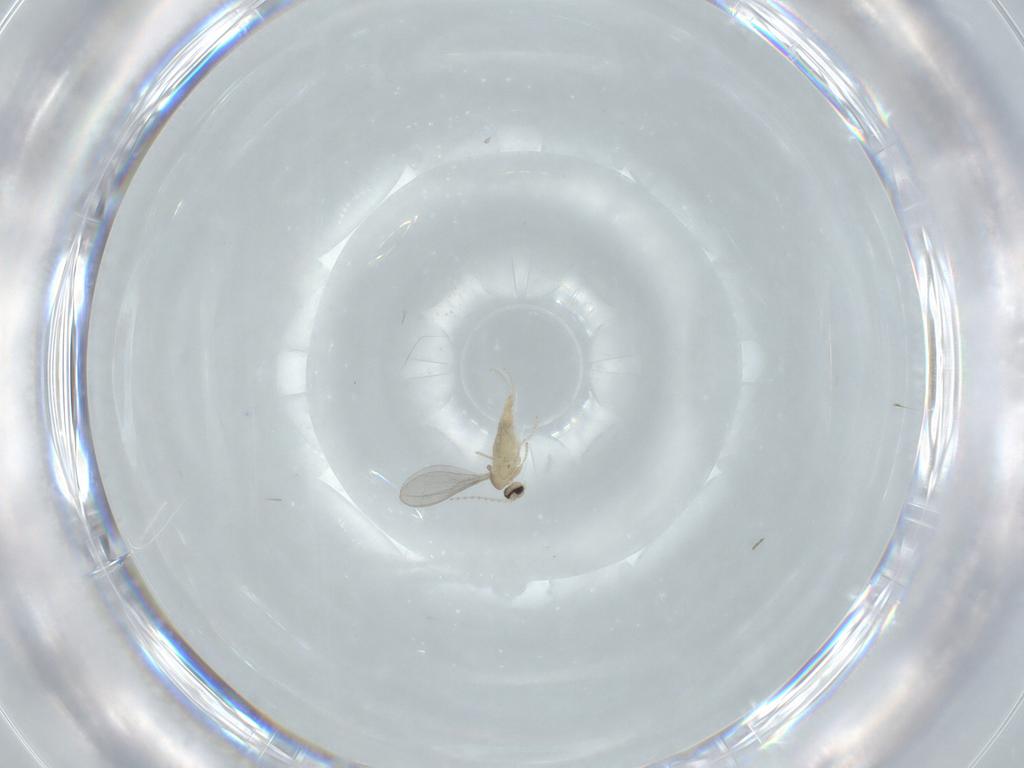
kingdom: Animalia
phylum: Arthropoda
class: Insecta
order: Diptera
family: Cecidomyiidae
